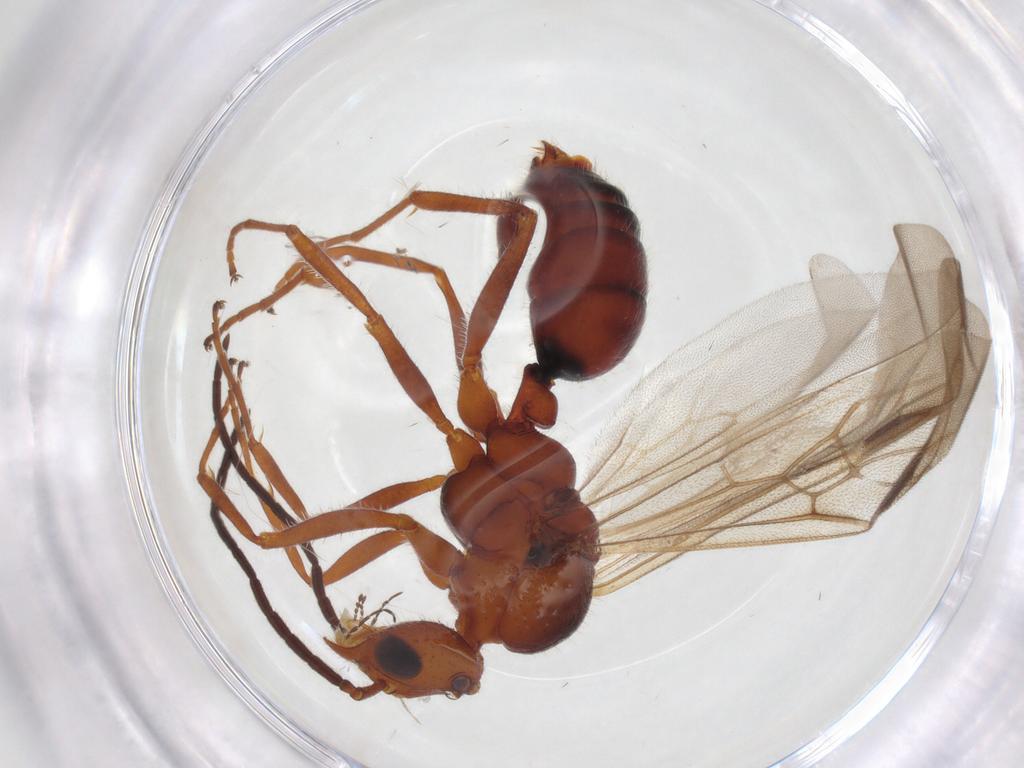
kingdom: Animalia
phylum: Arthropoda
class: Insecta
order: Hymenoptera
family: Formicidae
